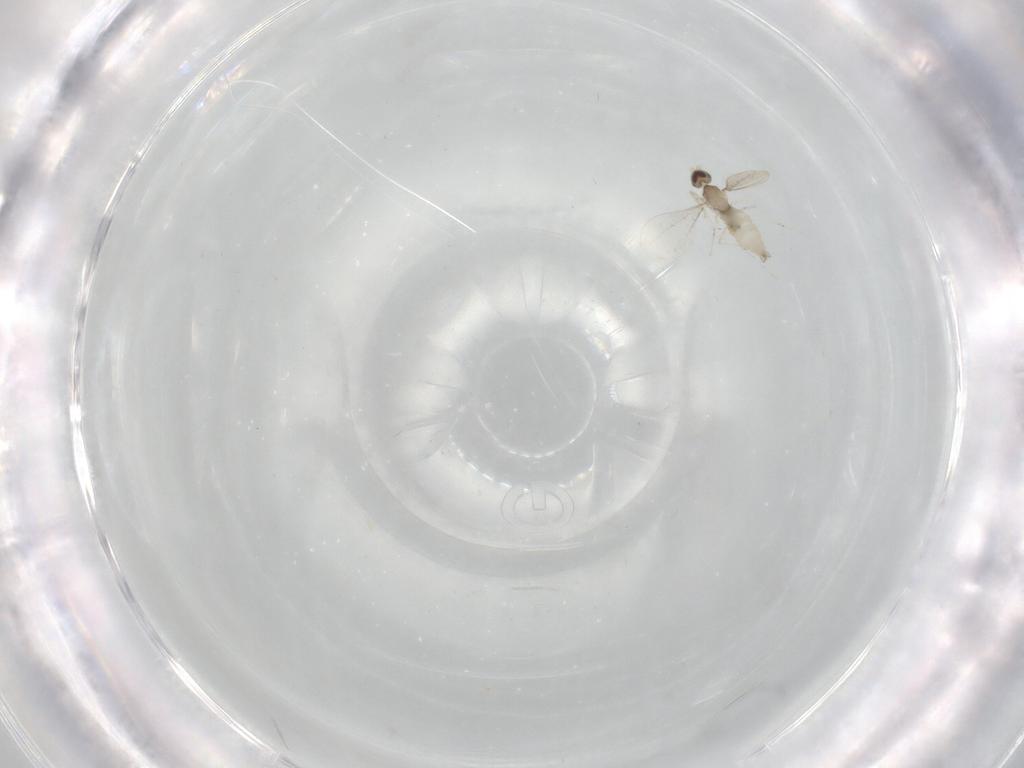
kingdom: Animalia
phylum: Arthropoda
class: Insecta
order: Diptera
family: Cecidomyiidae
